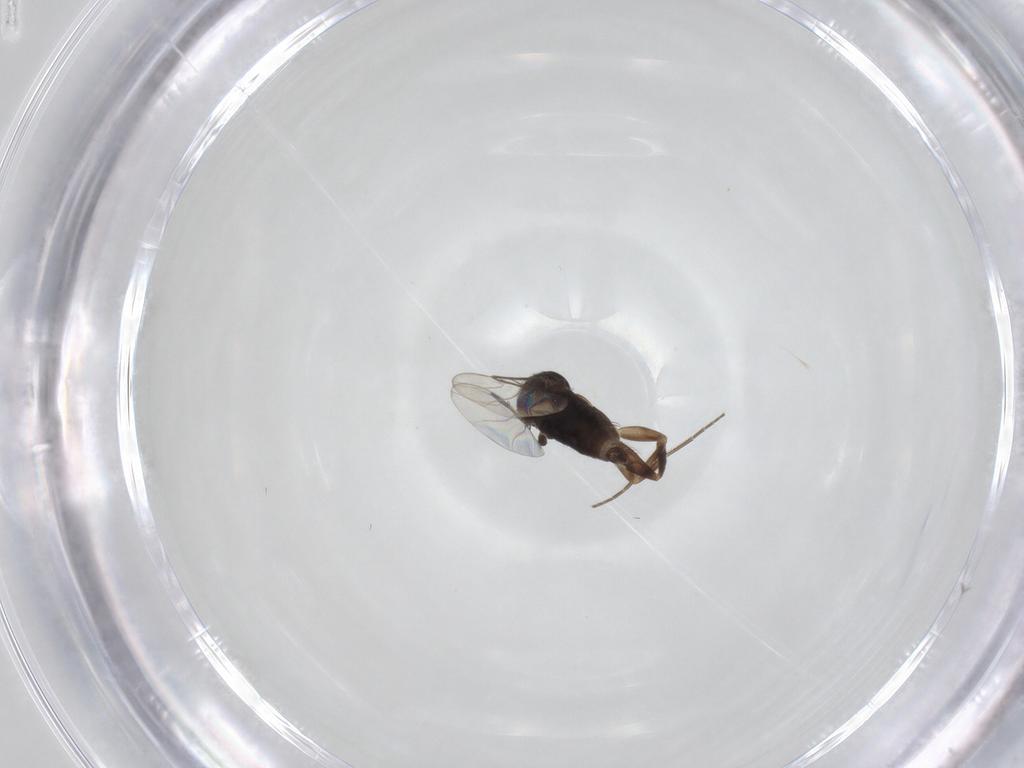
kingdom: Animalia
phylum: Arthropoda
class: Insecta
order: Diptera
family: Phoridae
